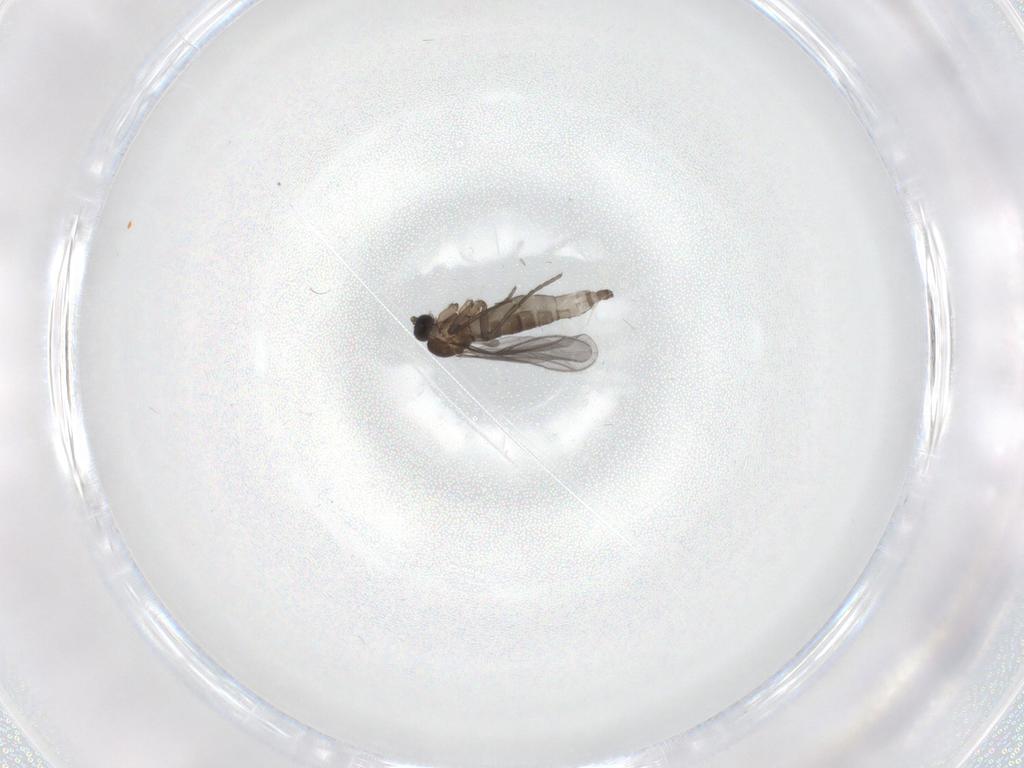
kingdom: Animalia
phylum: Arthropoda
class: Insecta
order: Diptera
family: Sciaridae
